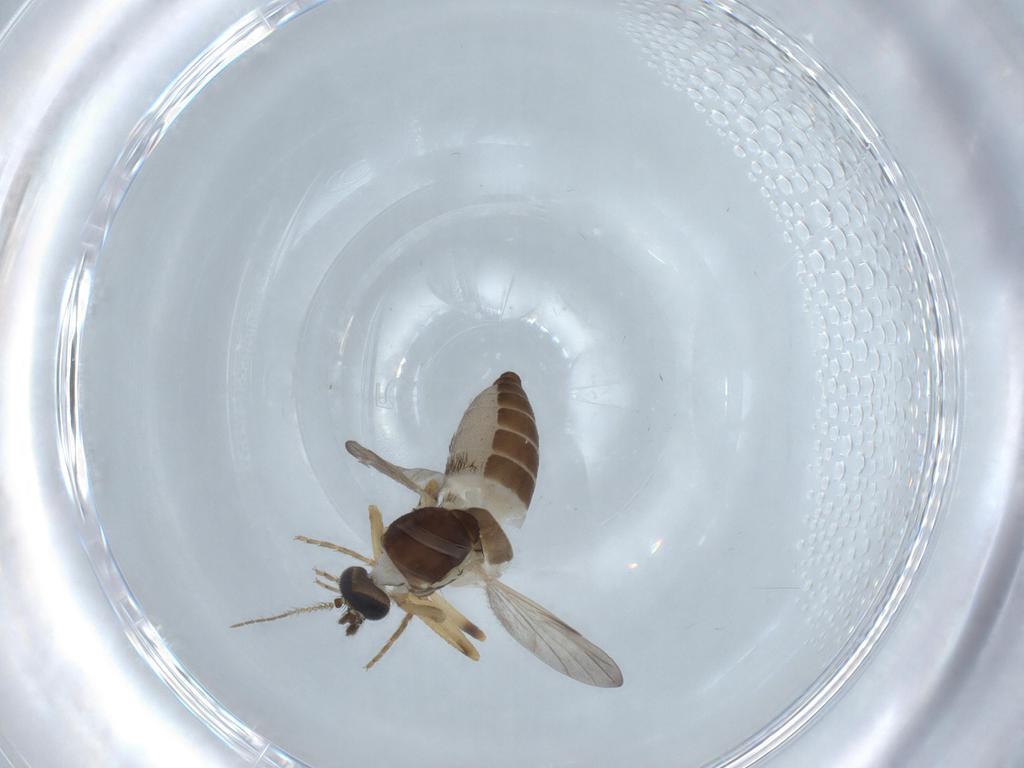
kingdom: Animalia
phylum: Arthropoda
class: Insecta
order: Diptera
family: Ceratopogonidae
